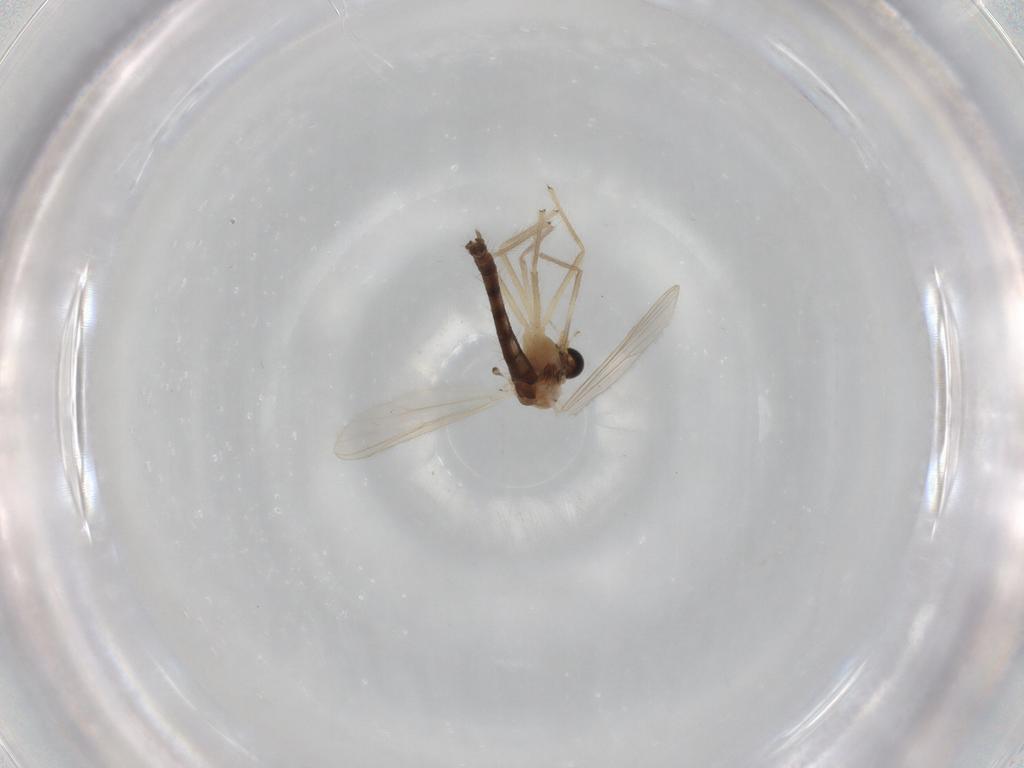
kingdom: Animalia
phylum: Arthropoda
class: Insecta
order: Diptera
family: Chironomidae
